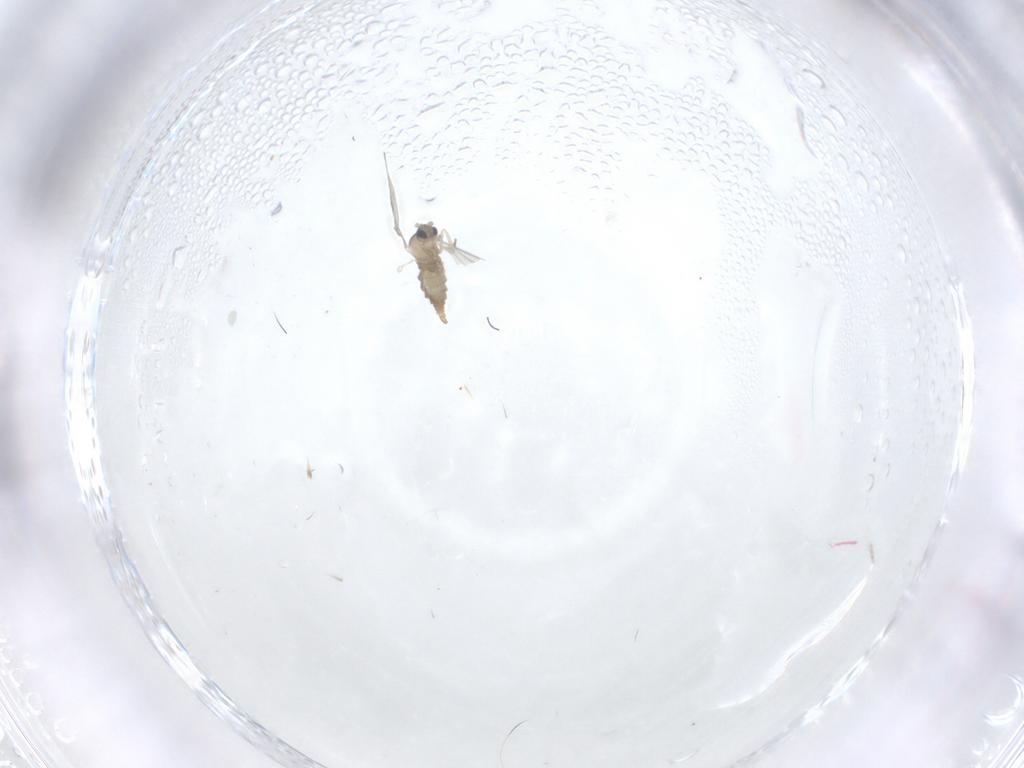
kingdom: Animalia
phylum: Arthropoda
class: Insecta
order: Diptera
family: Cecidomyiidae
